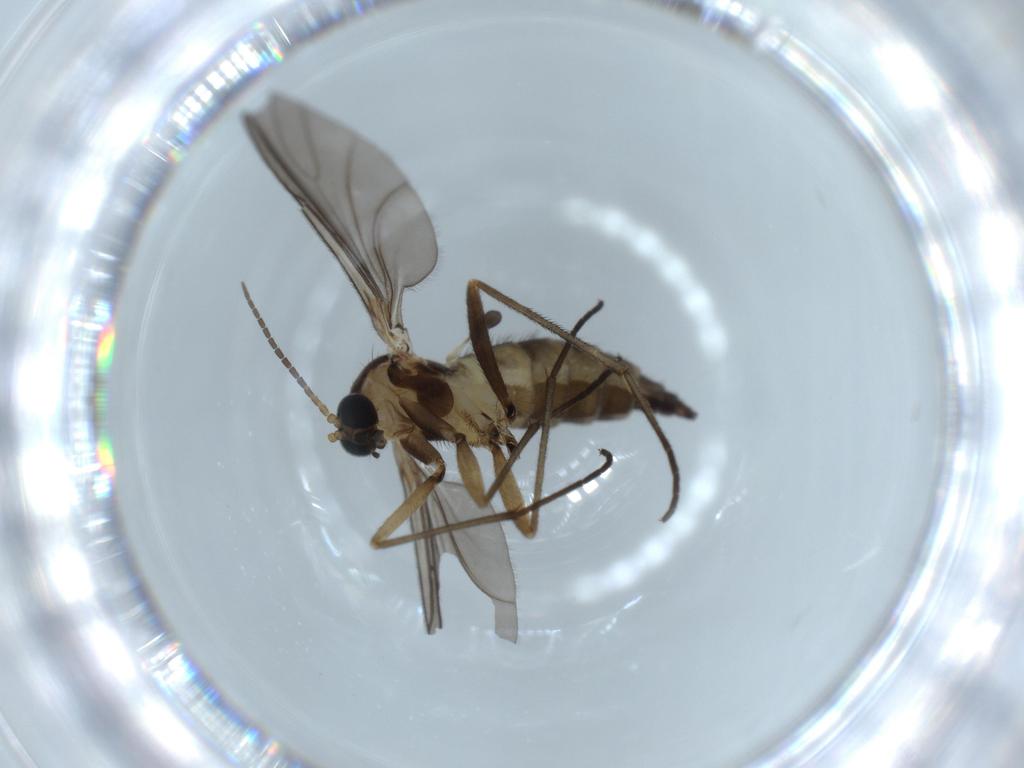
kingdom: Animalia
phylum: Arthropoda
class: Insecta
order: Diptera
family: Sciaridae
